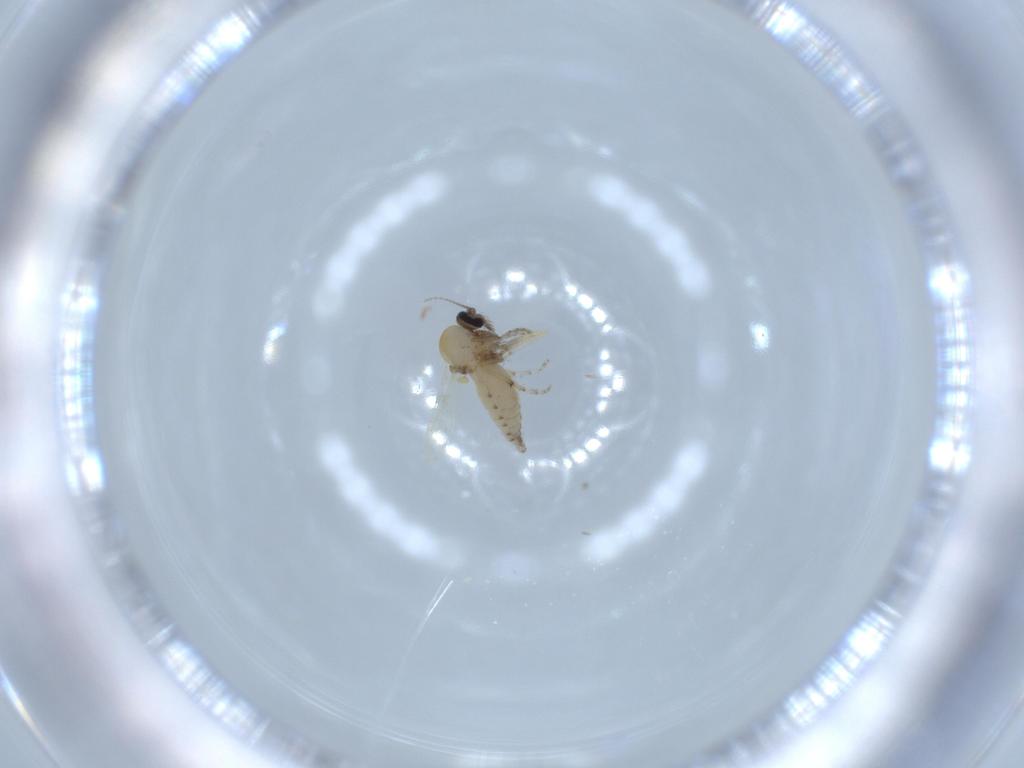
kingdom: Animalia
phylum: Arthropoda
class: Insecta
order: Diptera
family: Ceratopogonidae
